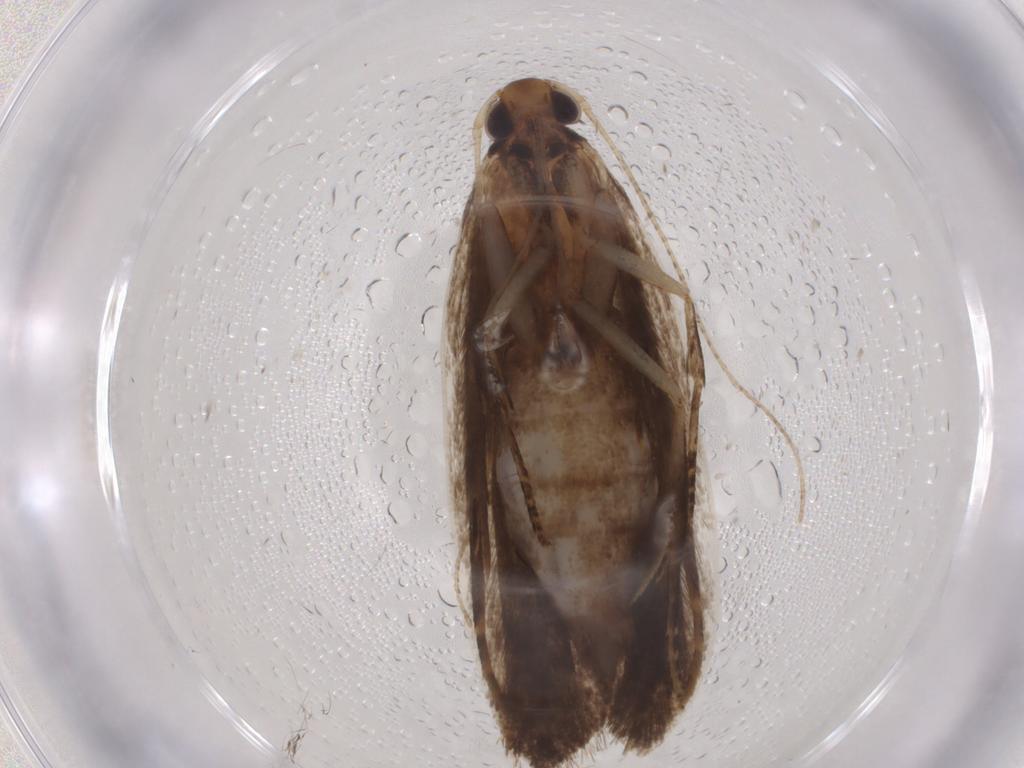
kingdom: Animalia
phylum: Arthropoda
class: Insecta
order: Lepidoptera
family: Gelechiidae
